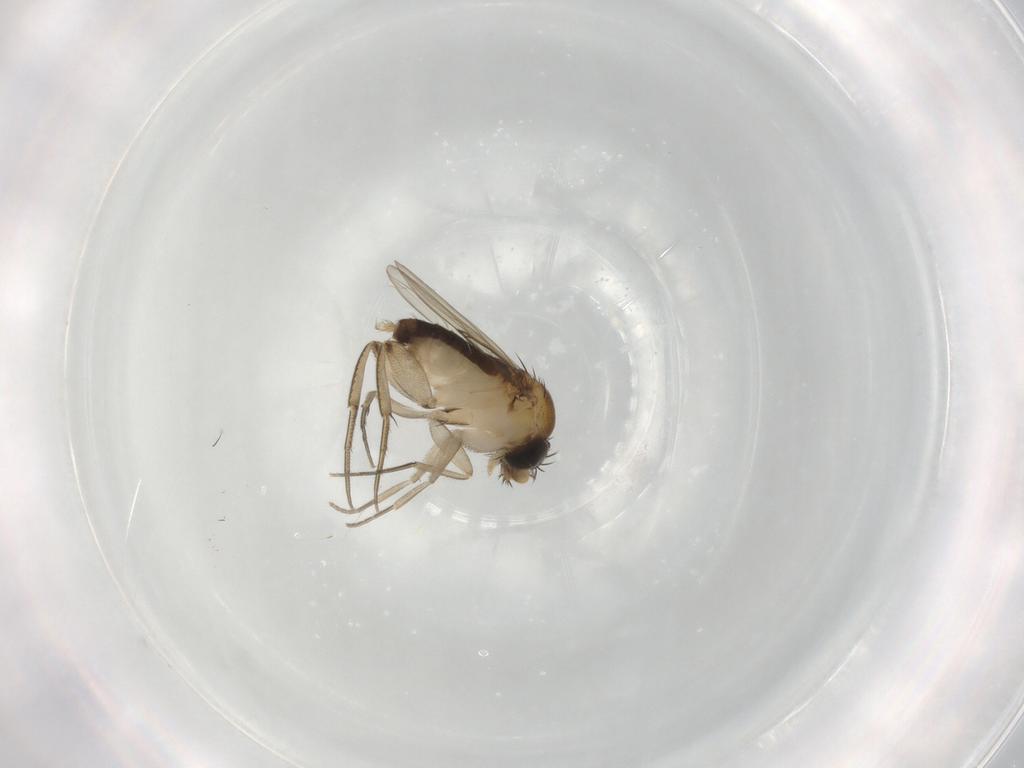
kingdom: Animalia
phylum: Arthropoda
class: Insecta
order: Diptera
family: Phoridae
